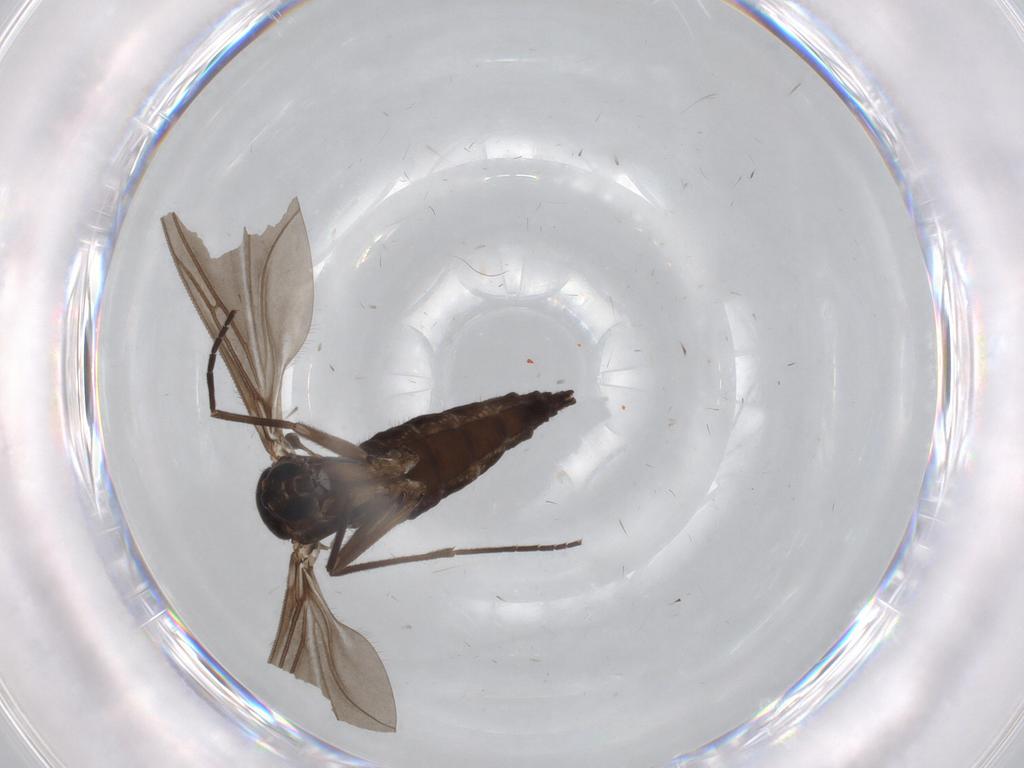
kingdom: Animalia
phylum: Arthropoda
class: Insecta
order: Diptera
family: Sciaridae
